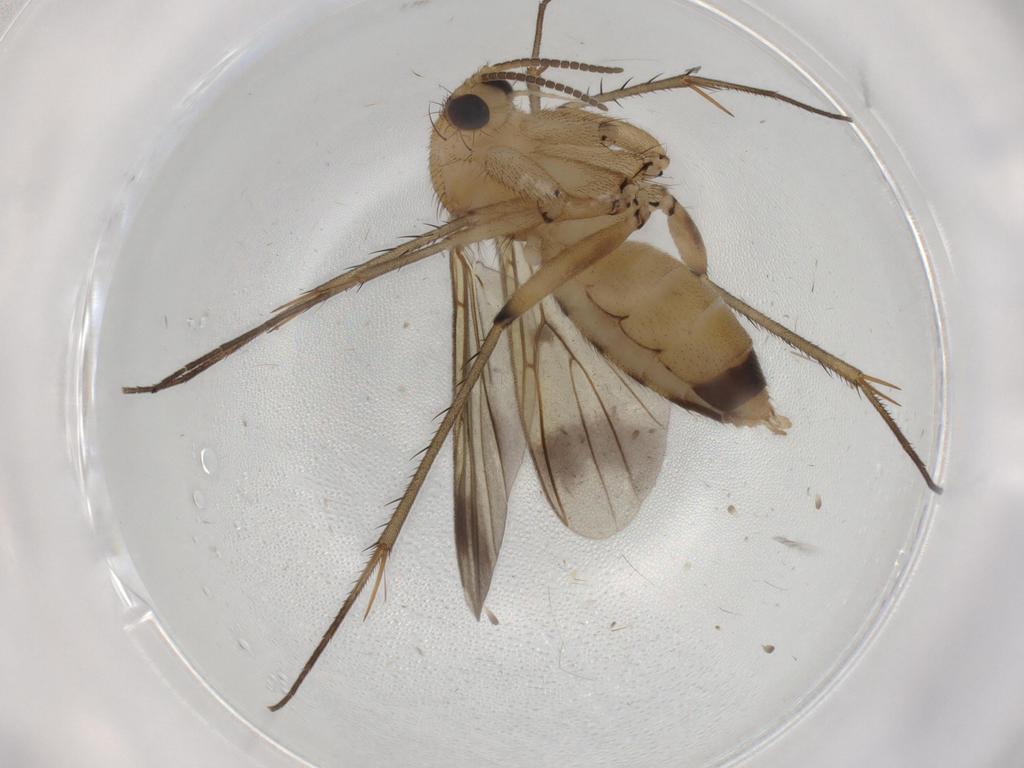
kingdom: Animalia
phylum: Arthropoda
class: Insecta
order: Diptera
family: Mycetophilidae
